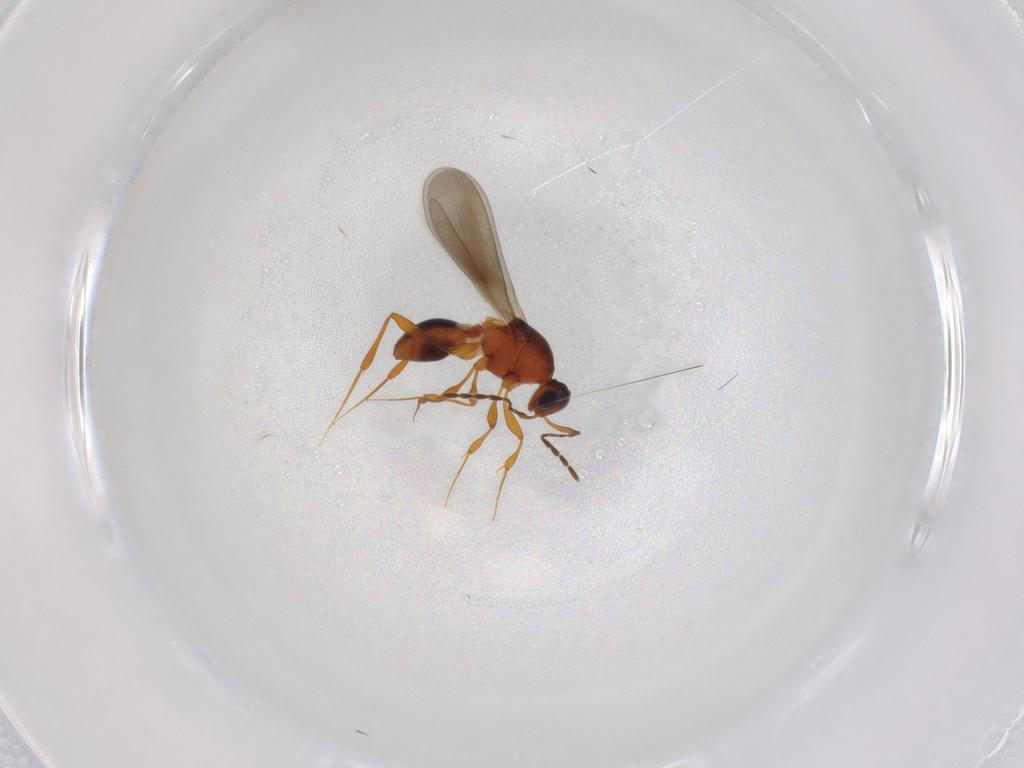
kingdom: Animalia
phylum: Arthropoda
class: Insecta
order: Hymenoptera
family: Platygastridae
